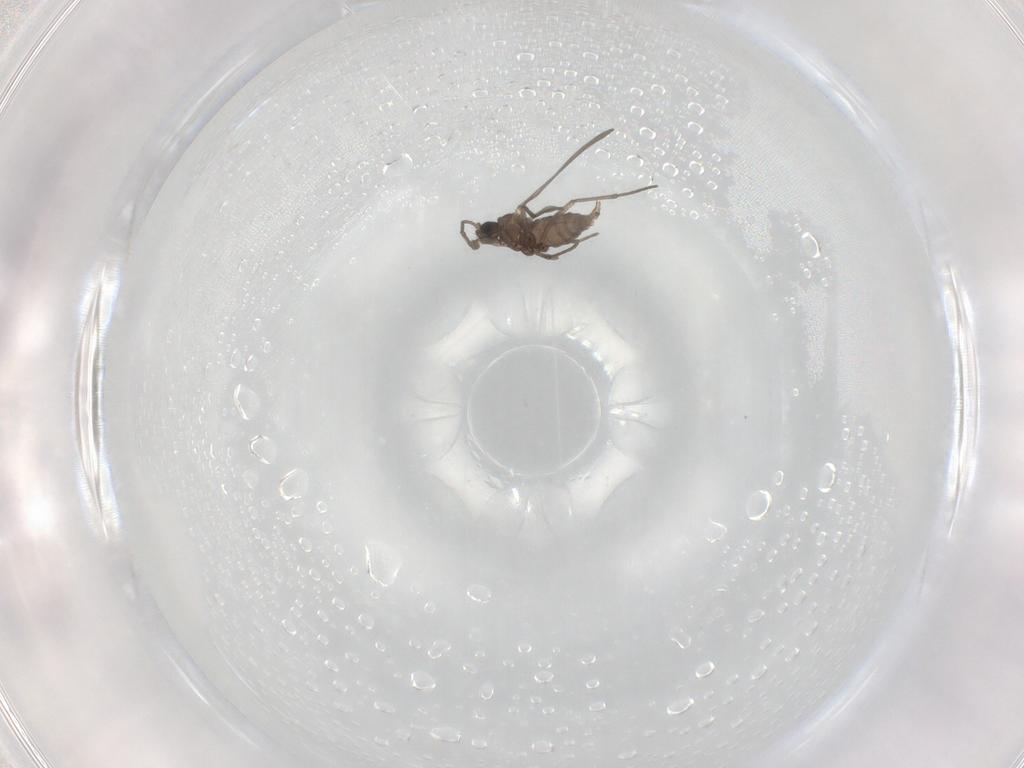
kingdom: Animalia
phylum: Arthropoda
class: Insecta
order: Diptera
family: Sciaridae
